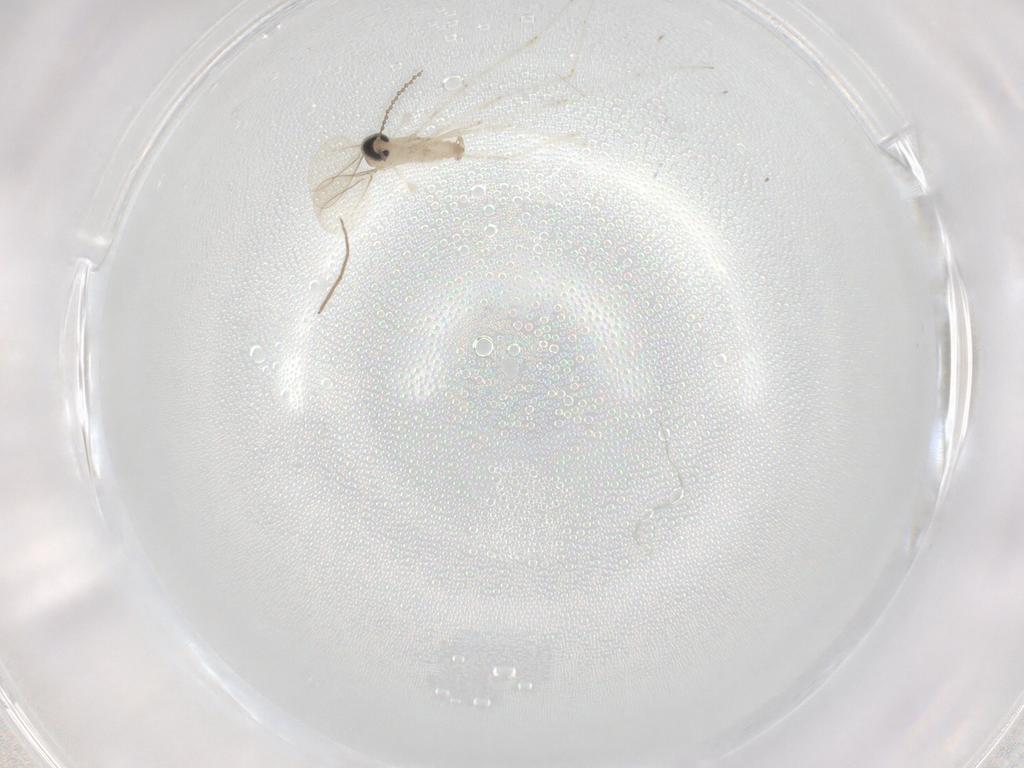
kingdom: Animalia
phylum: Arthropoda
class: Insecta
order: Diptera
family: Chironomidae
